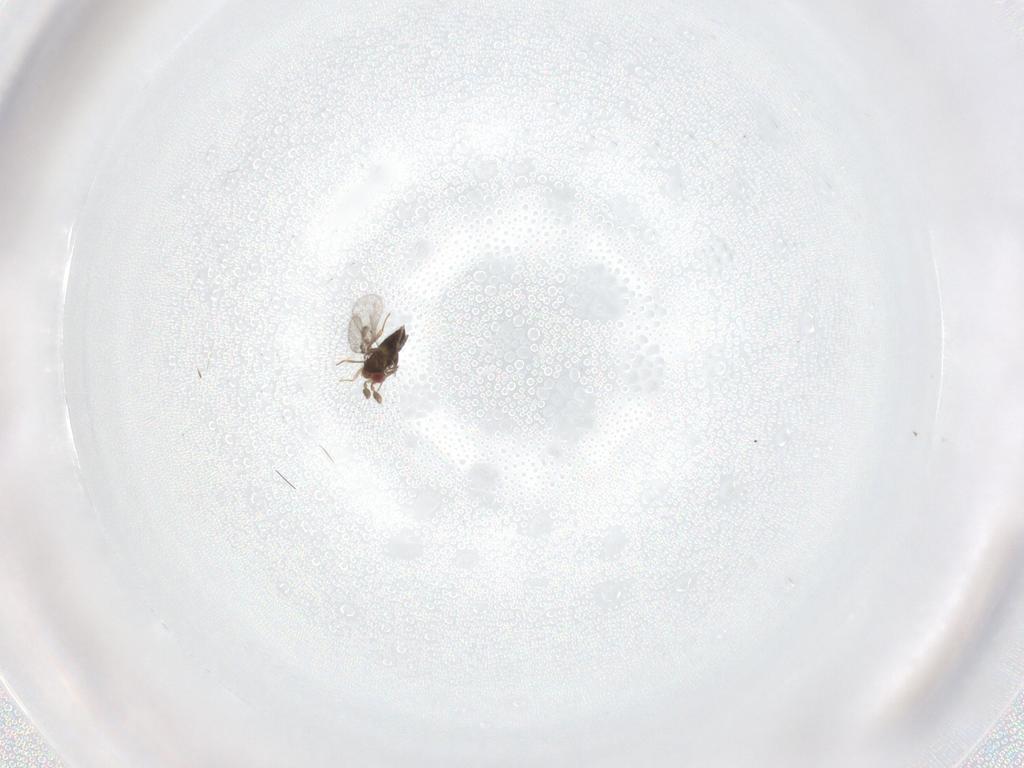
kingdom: Animalia
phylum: Arthropoda
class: Insecta
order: Hymenoptera
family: Trichogrammatidae
